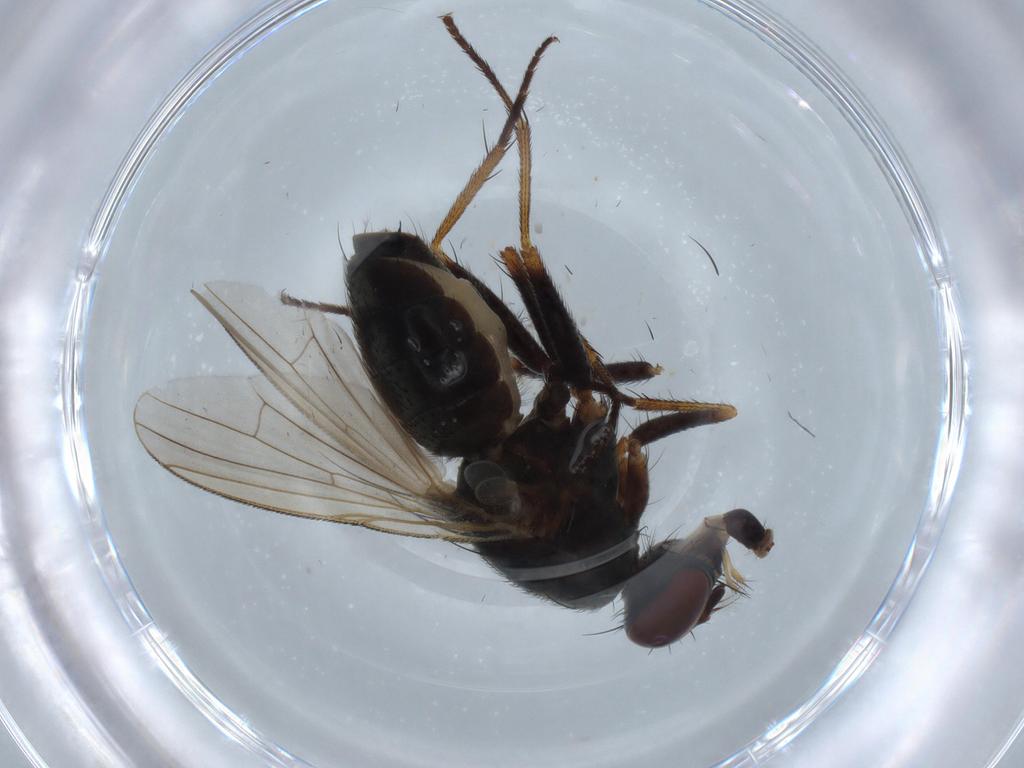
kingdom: Animalia
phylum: Arthropoda
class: Insecta
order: Diptera
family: Muscidae
